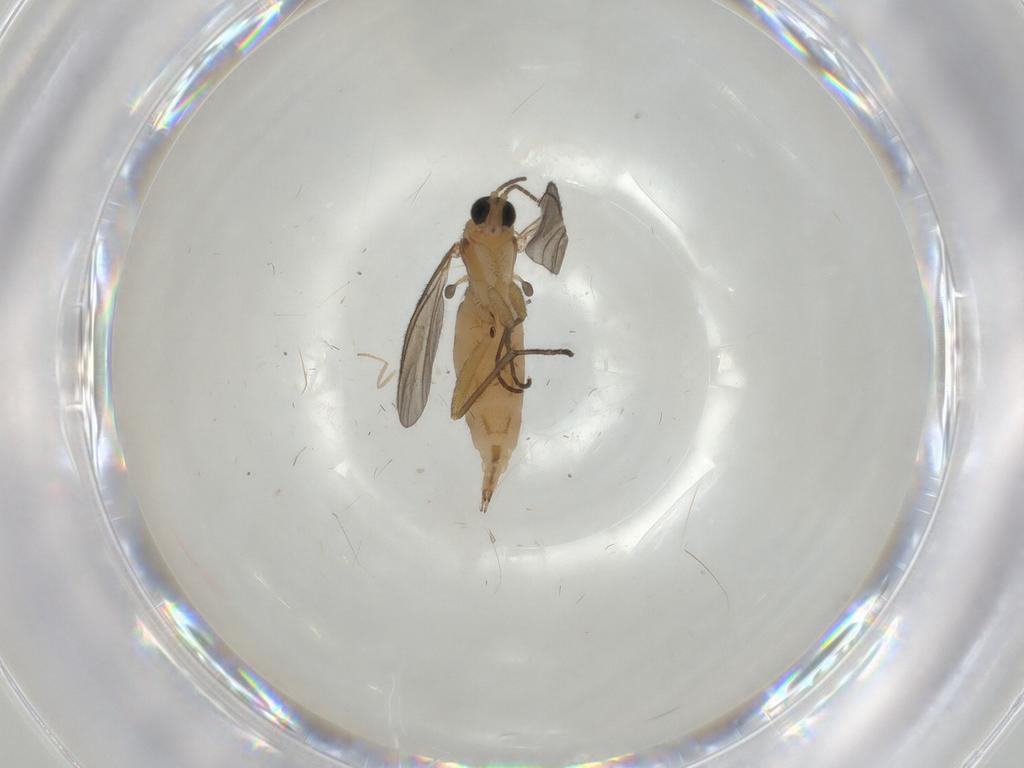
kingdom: Animalia
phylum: Arthropoda
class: Insecta
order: Diptera
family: Cecidomyiidae
